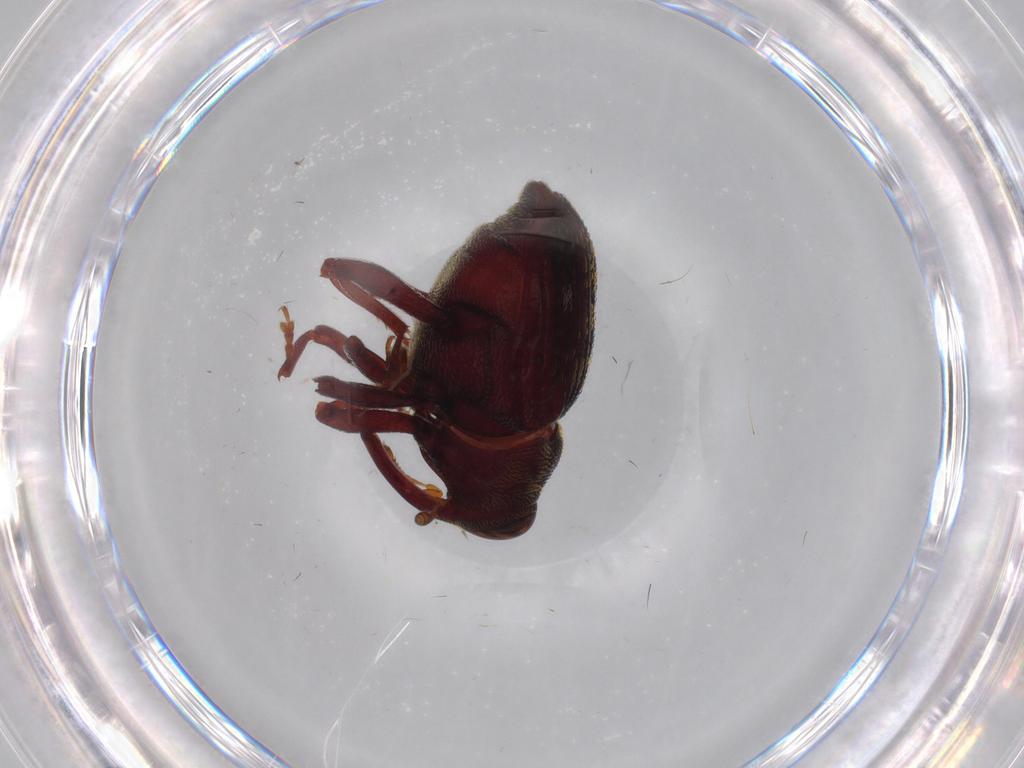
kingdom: Animalia
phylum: Arthropoda
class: Insecta
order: Coleoptera
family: Curculionidae
